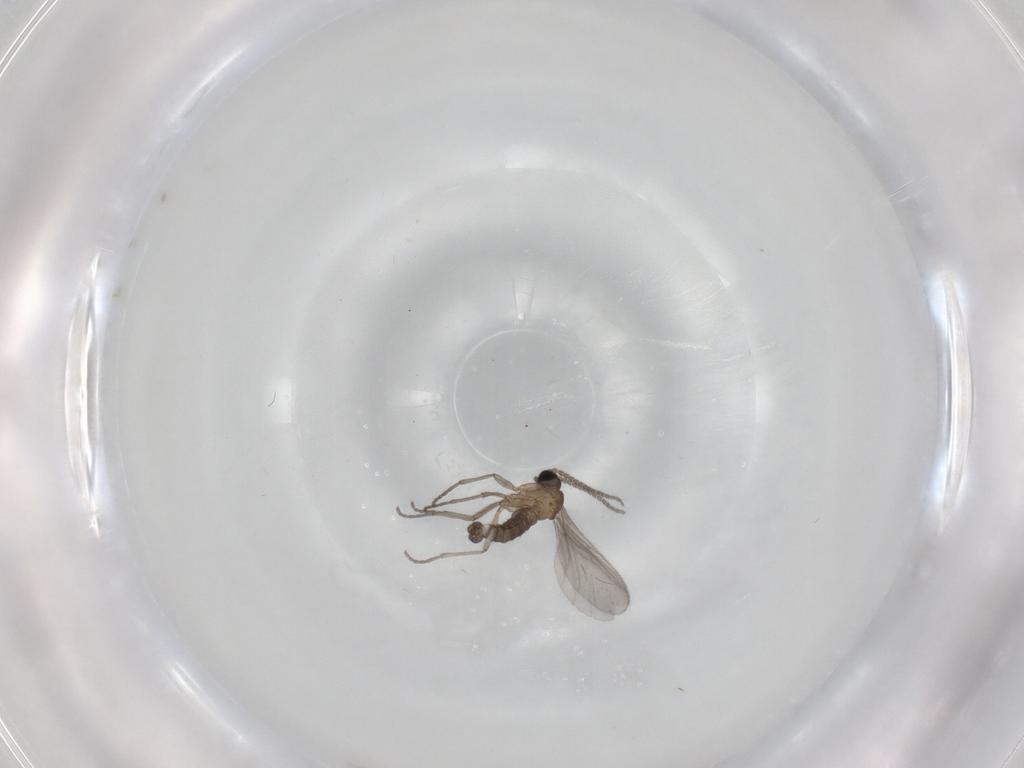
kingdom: Animalia
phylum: Arthropoda
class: Insecta
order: Diptera
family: Sciaridae
